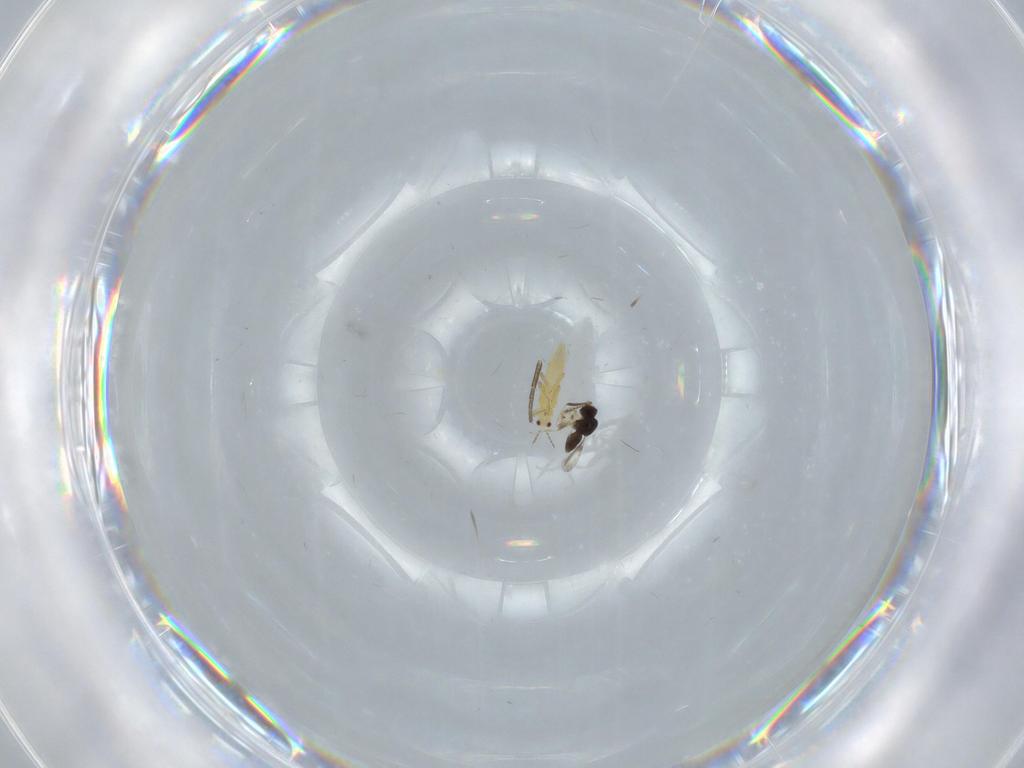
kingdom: Animalia
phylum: Arthropoda
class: Insecta
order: Hymenoptera
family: Ceraphronidae
